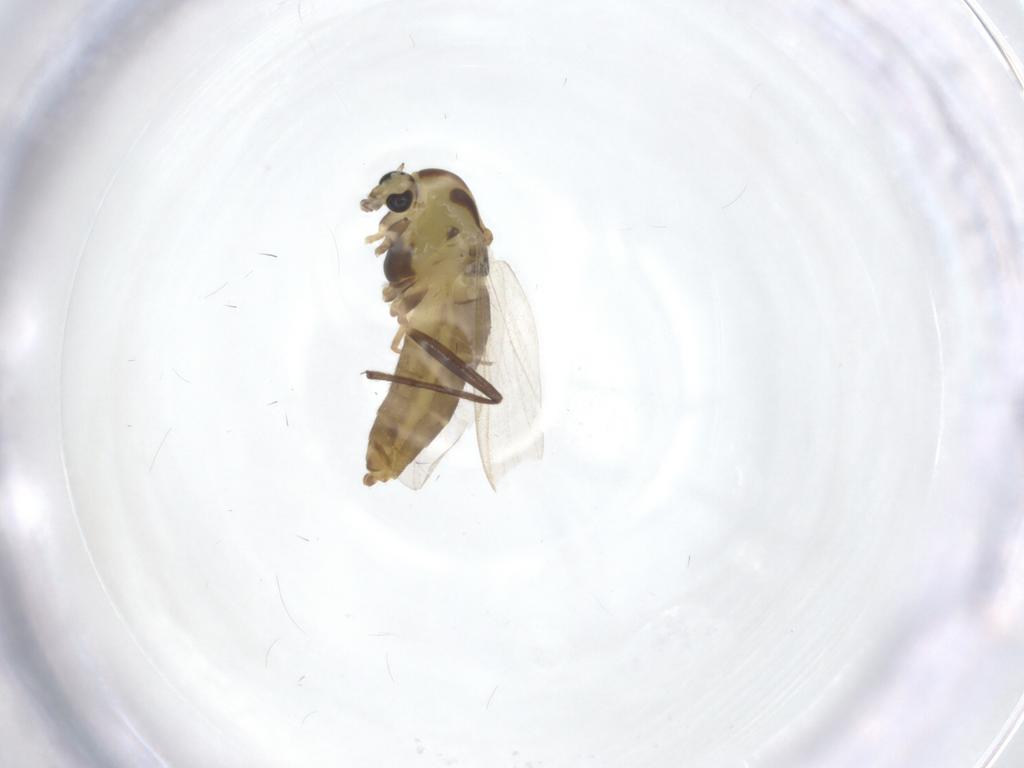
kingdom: Animalia
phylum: Arthropoda
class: Insecta
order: Diptera
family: Chironomidae
